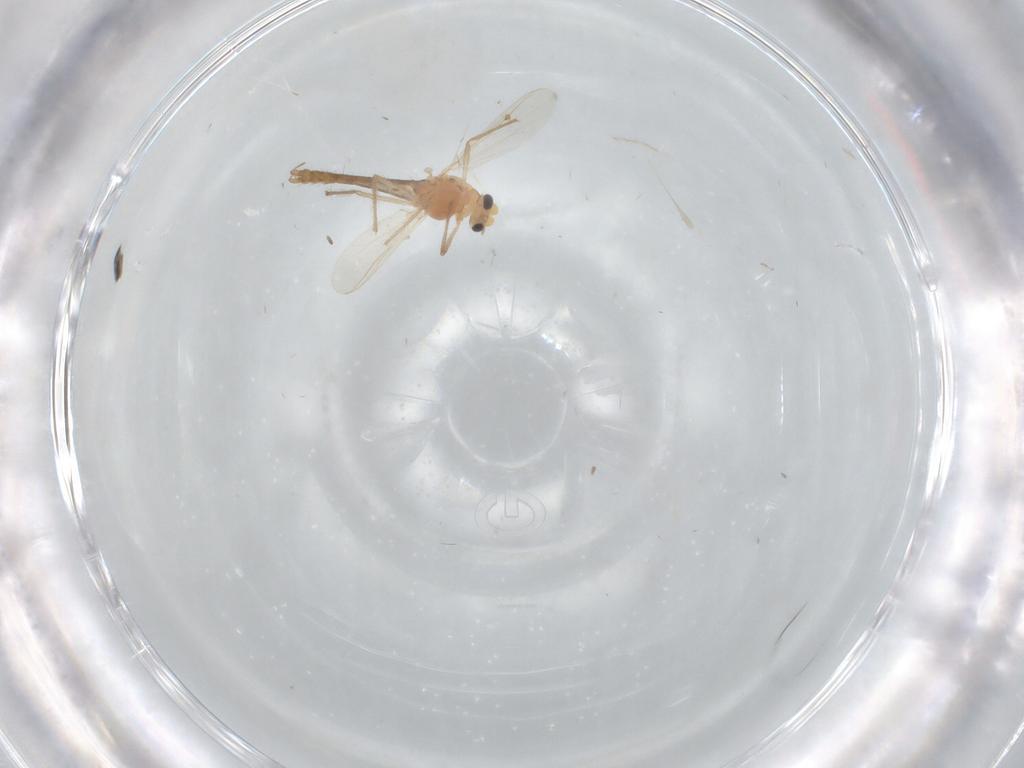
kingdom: Animalia
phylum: Arthropoda
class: Insecta
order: Diptera
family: Chironomidae
